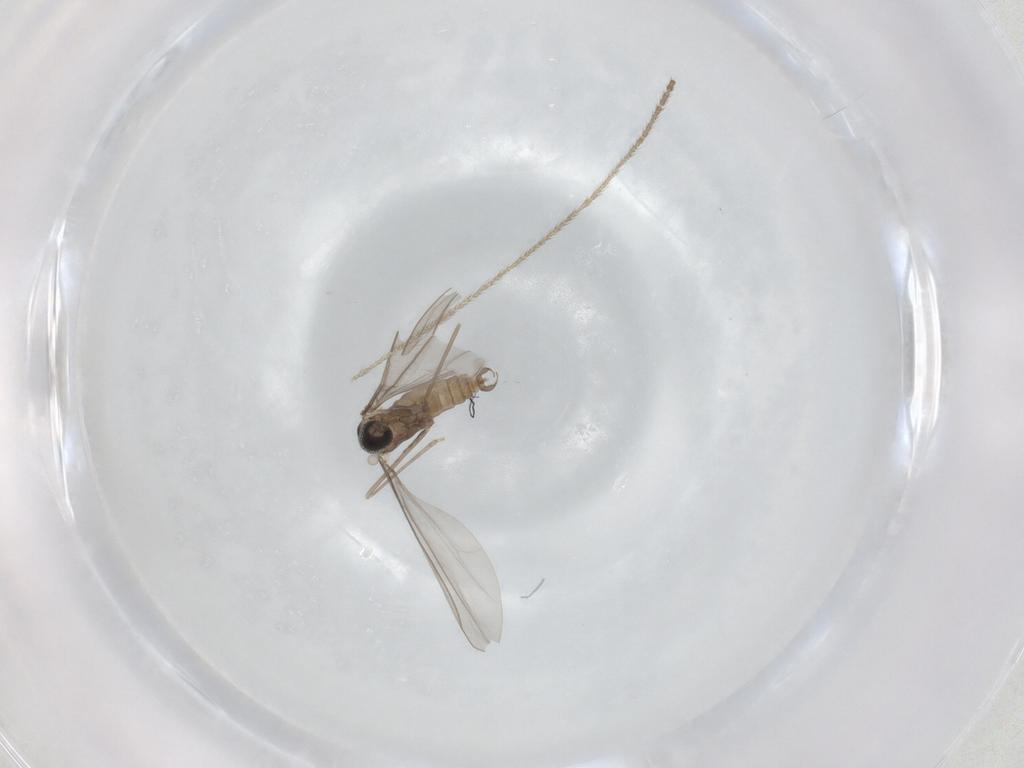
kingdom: Animalia
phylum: Arthropoda
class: Insecta
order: Diptera
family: Cecidomyiidae
